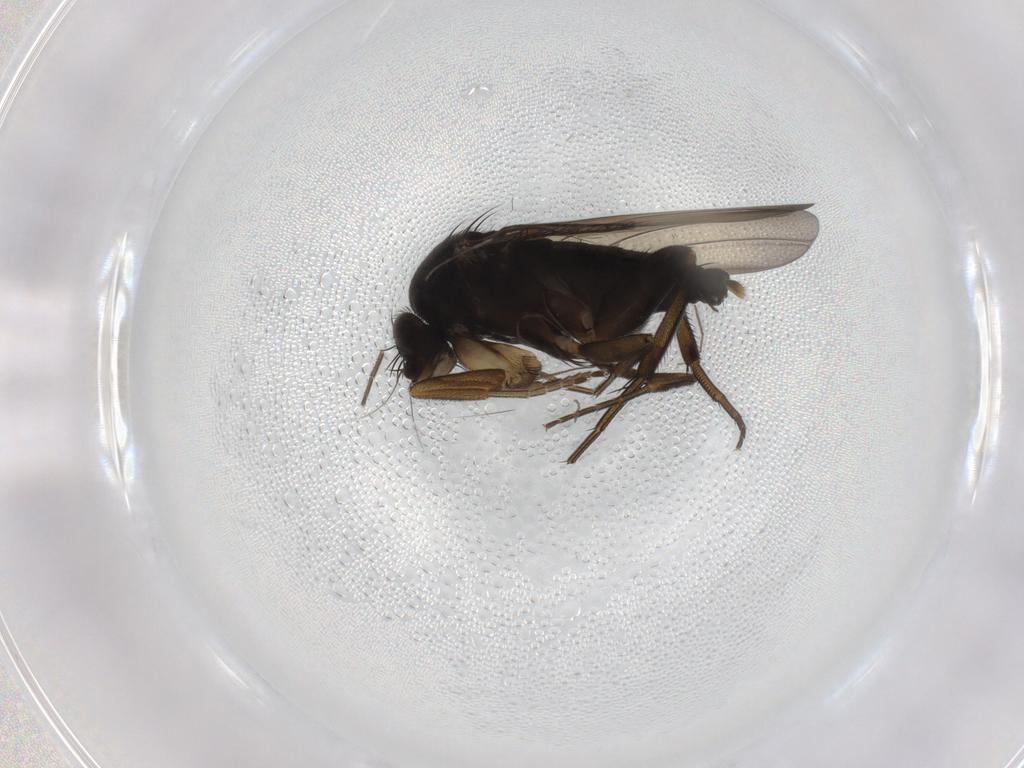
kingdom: Animalia
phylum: Arthropoda
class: Insecta
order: Diptera
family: Phoridae
